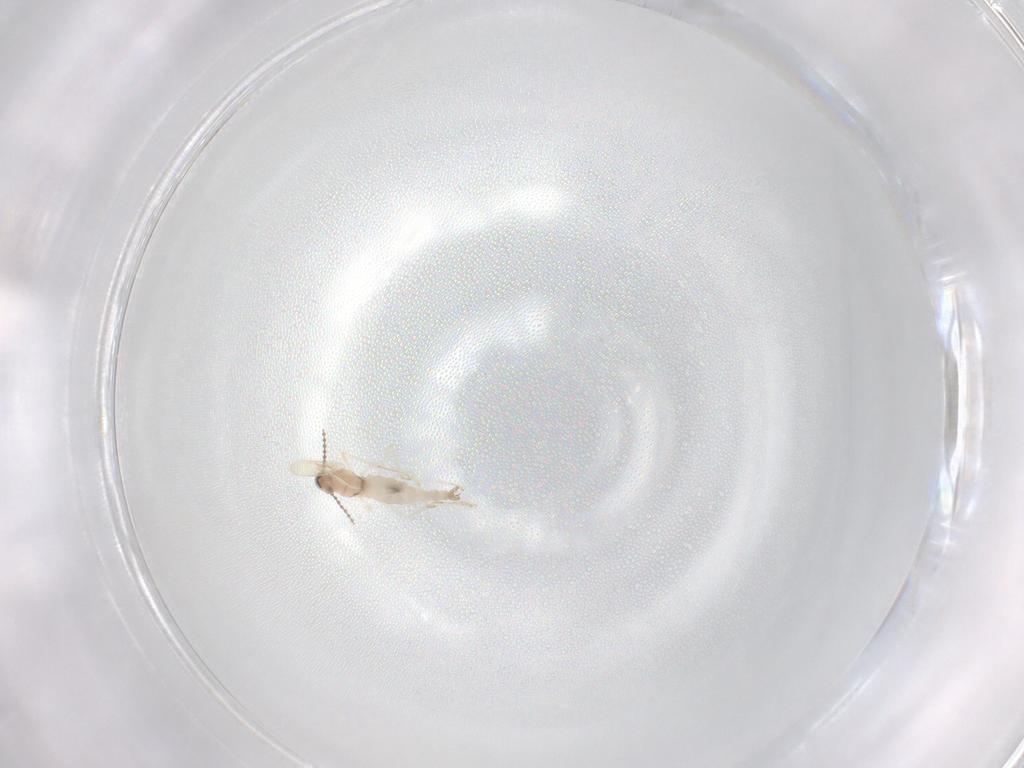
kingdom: Animalia
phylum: Arthropoda
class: Insecta
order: Diptera
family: Cecidomyiidae
